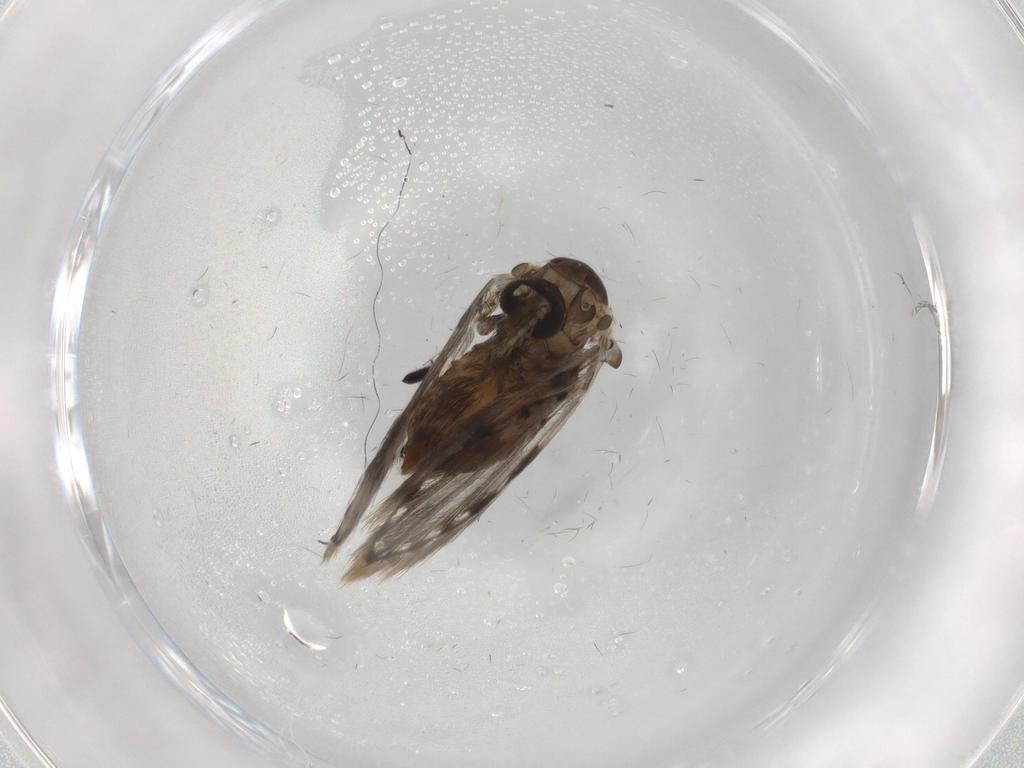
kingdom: Animalia
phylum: Arthropoda
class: Insecta
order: Diptera
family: Psychodidae
